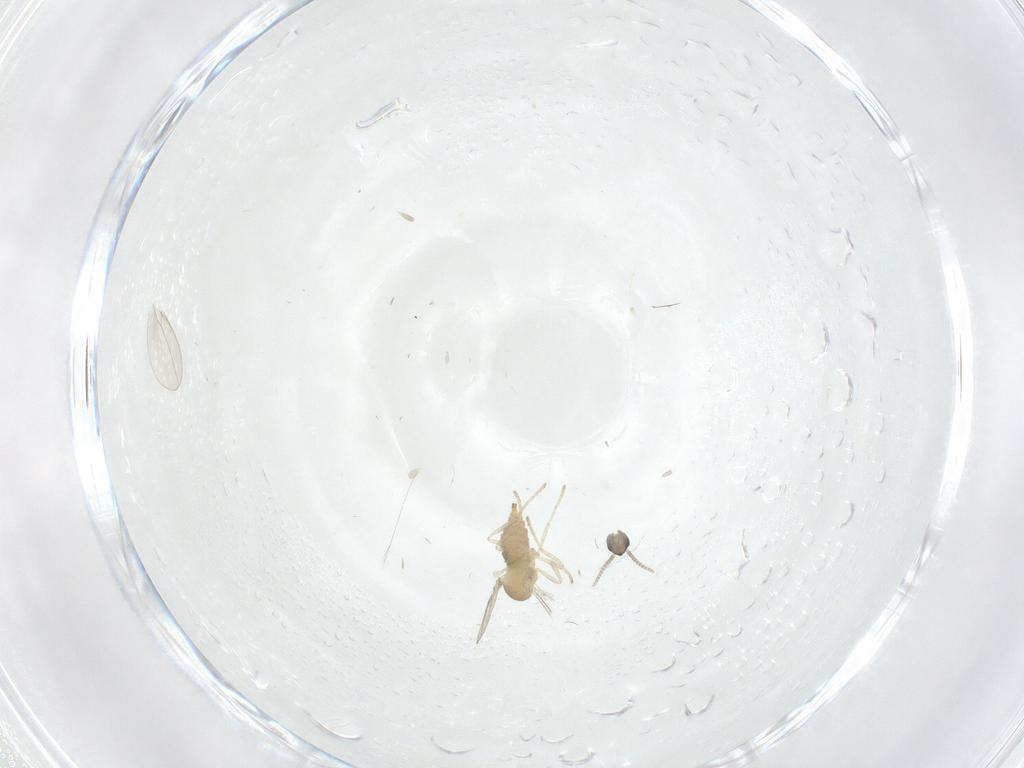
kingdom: Animalia
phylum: Arthropoda
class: Insecta
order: Diptera
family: Cecidomyiidae
